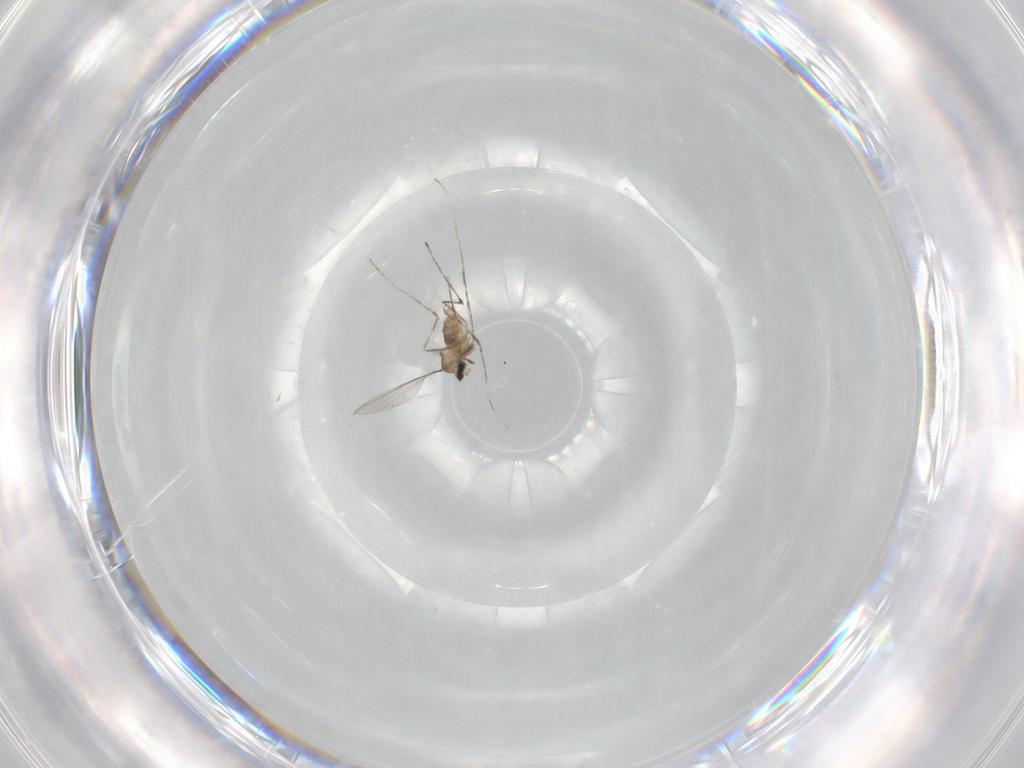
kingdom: Animalia
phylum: Arthropoda
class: Insecta
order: Diptera
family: Cecidomyiidae
